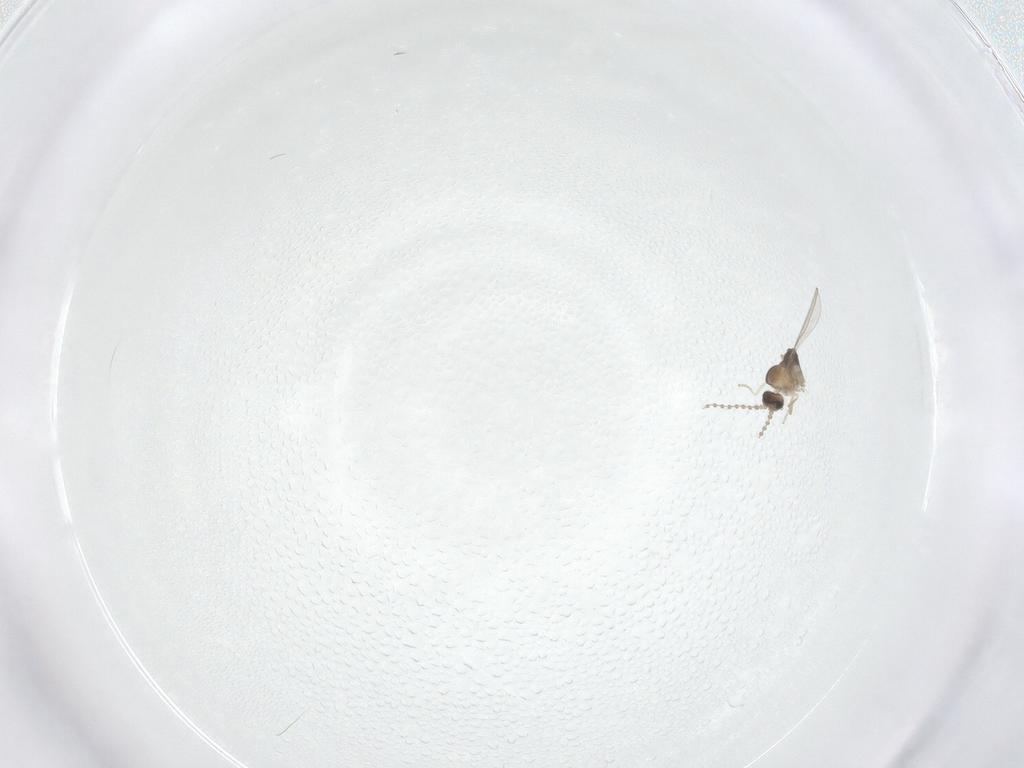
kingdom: Animalia
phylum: Arthropoda
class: Insecta
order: Diptera
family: Cecidomyiidae
